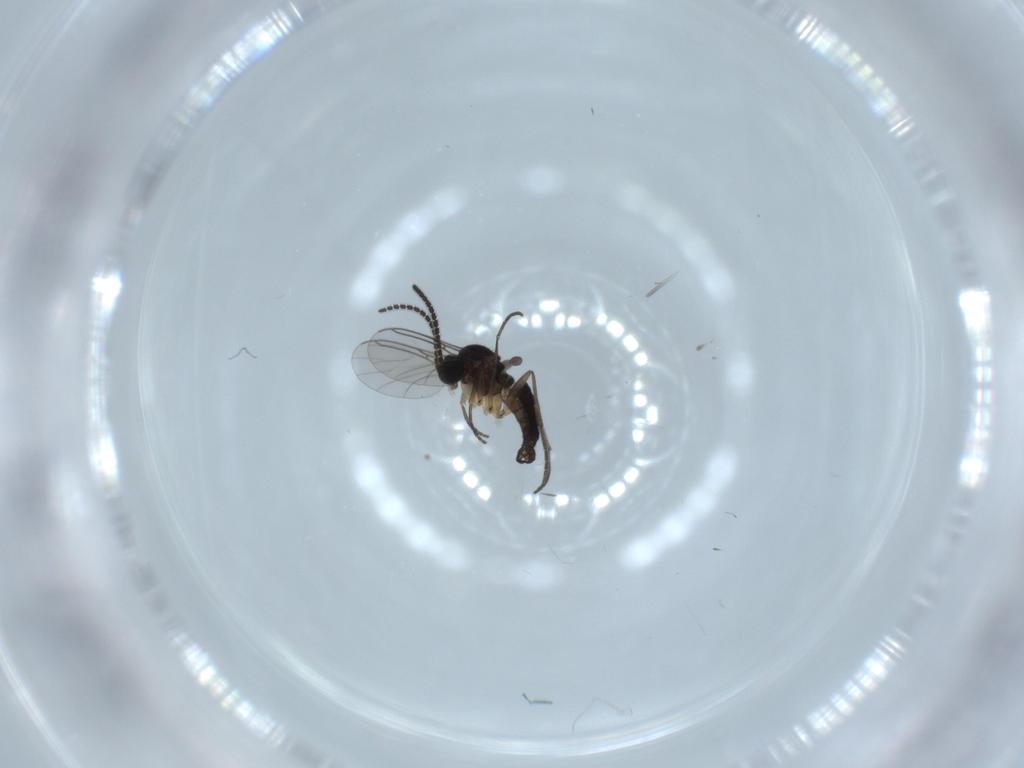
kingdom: Animalia
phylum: Arthropoda
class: Insecta
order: Diptera
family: Sciaridae
